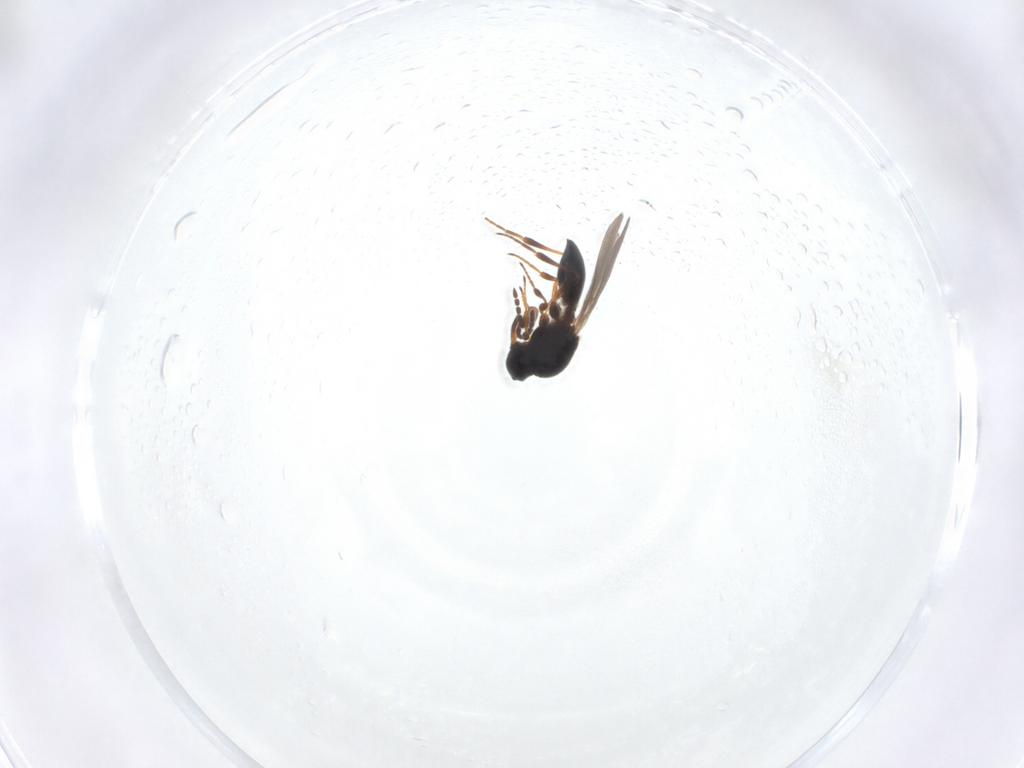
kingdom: Animalia
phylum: Arthropoda
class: Insecta
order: Hymenoptera
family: Platygastridae
